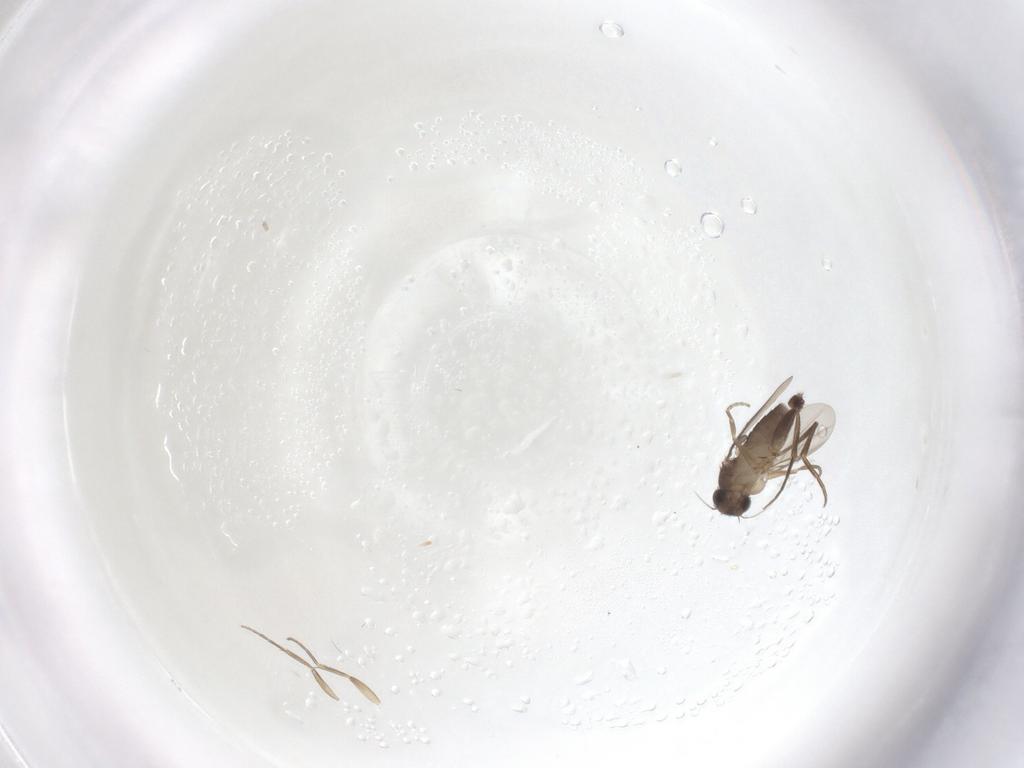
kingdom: Animalia
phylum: Arthropoda
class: Insecta
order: Diptera
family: Phoridae
